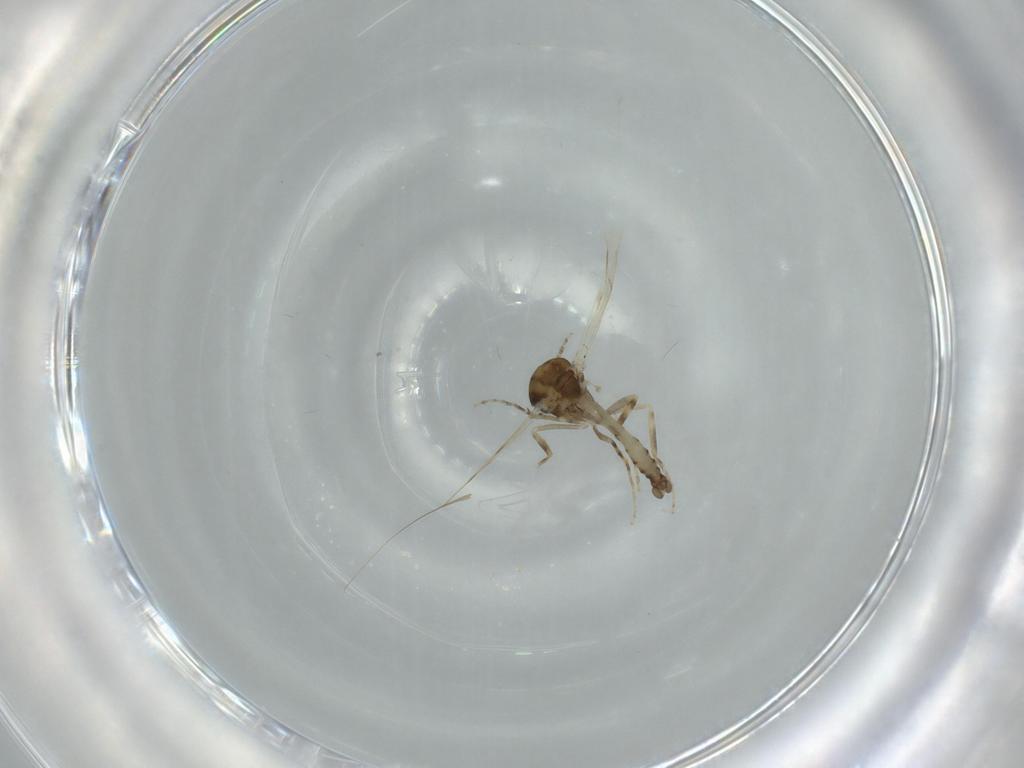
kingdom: Animalia
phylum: Arthropoda
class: Insecta
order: Diptera
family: Ceratopogonidae
